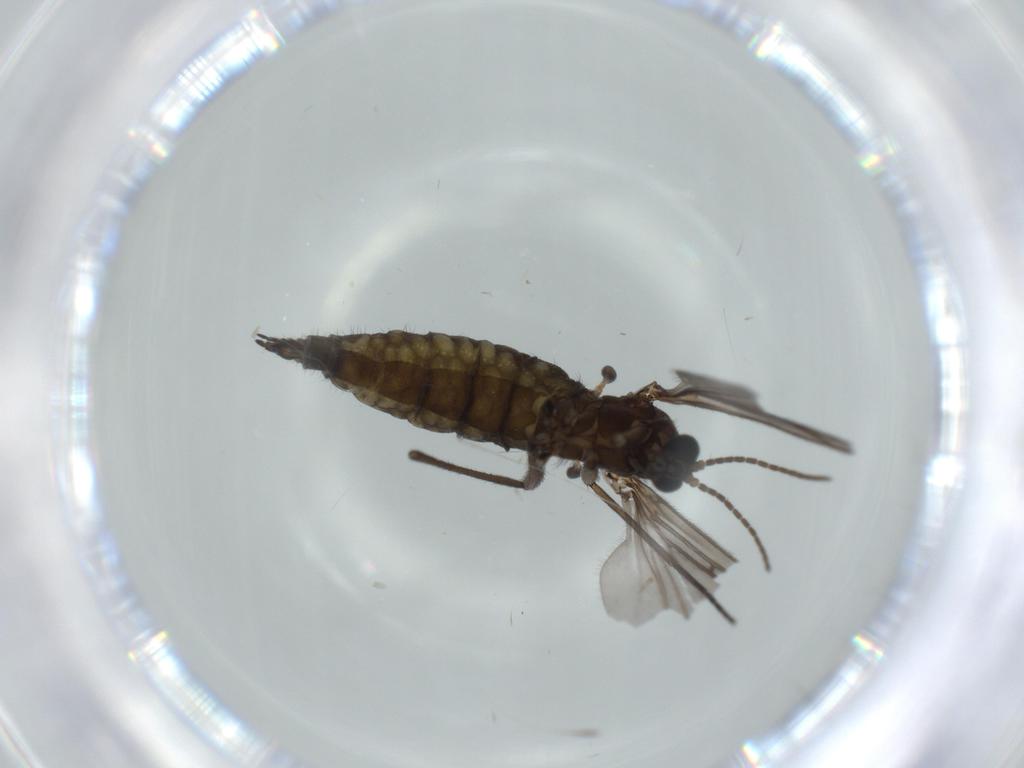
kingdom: Animalia
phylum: Arthropoda
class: Insecta
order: Diptera
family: Sciaridae
